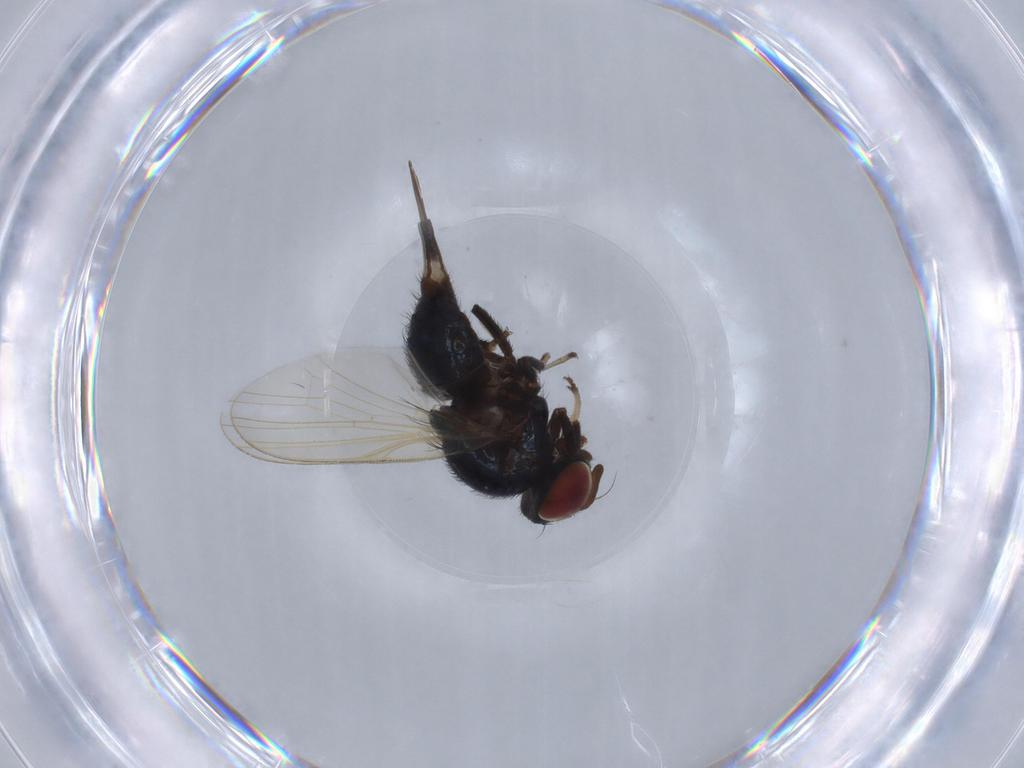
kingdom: Animalia
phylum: Arthropoda
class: Insecta
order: Diptera
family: Lonchaeidae
